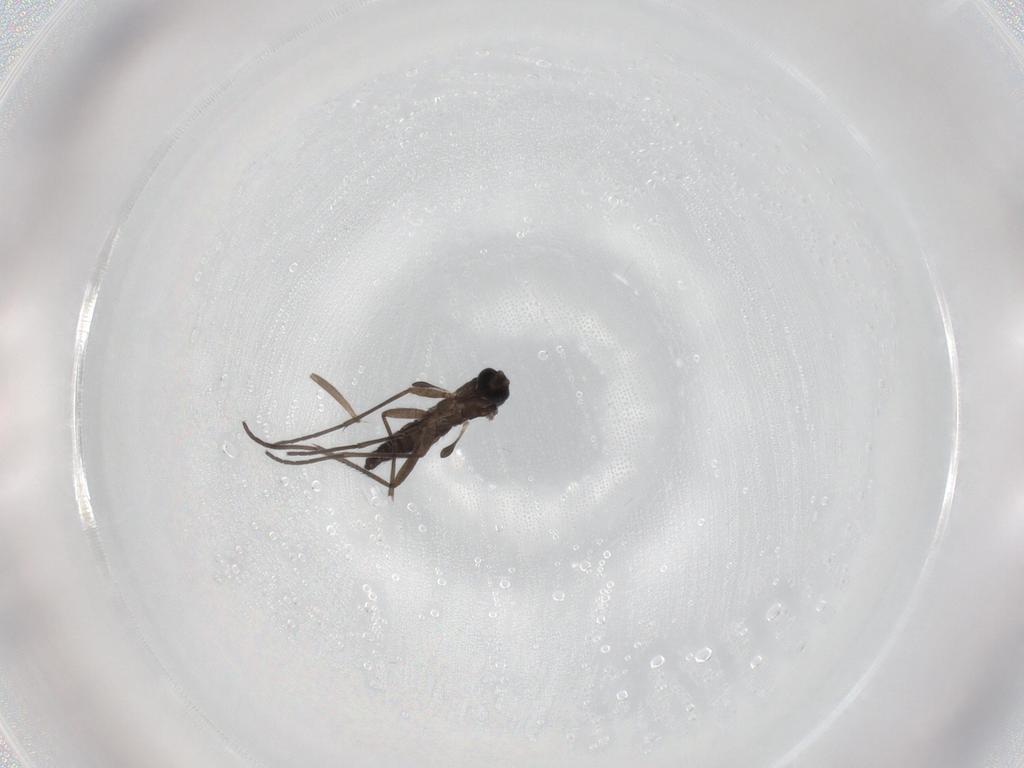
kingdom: Animalia
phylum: Arthropoda
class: Insecta
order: Diptera
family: Sciaridae
